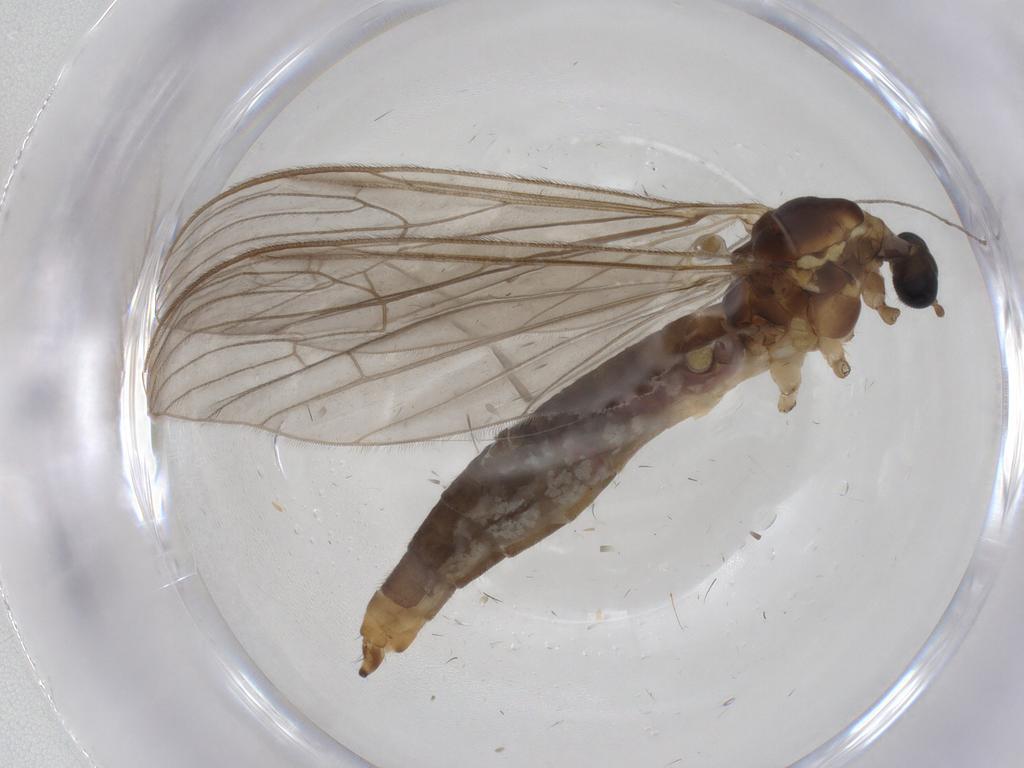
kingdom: Animalia
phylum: Arthropoda
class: Insecta
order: Diptera
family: Limoniidae
